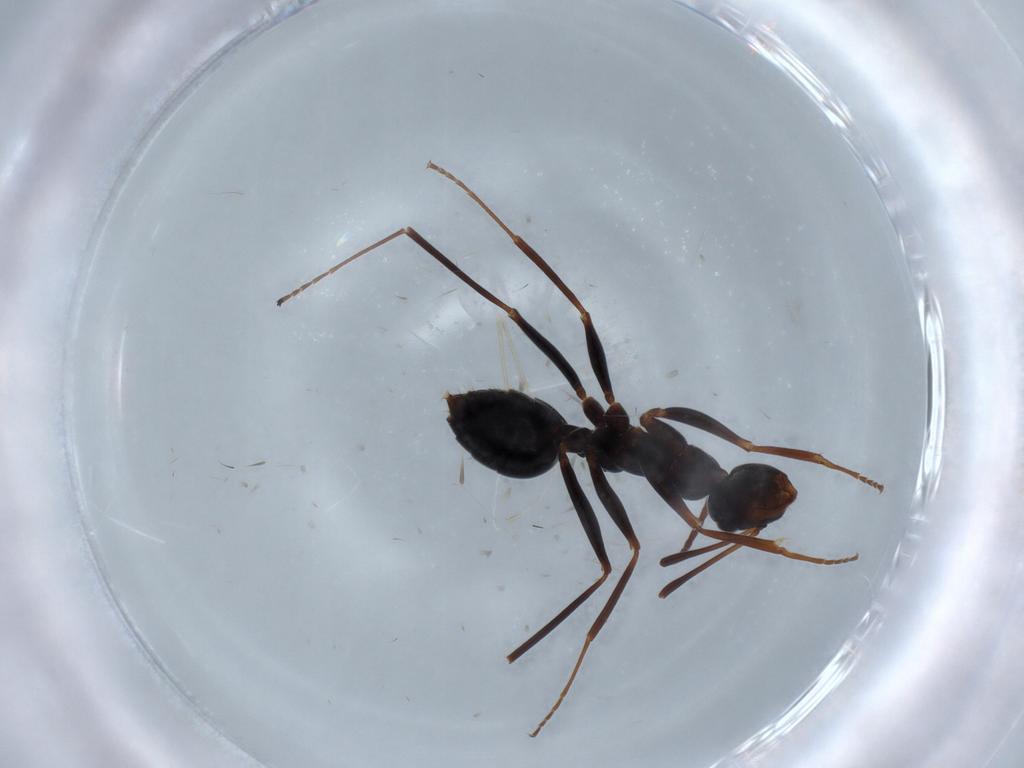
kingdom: Animalia
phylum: Arthropoda
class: Insecta
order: Hymenoptera
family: Formicidae
